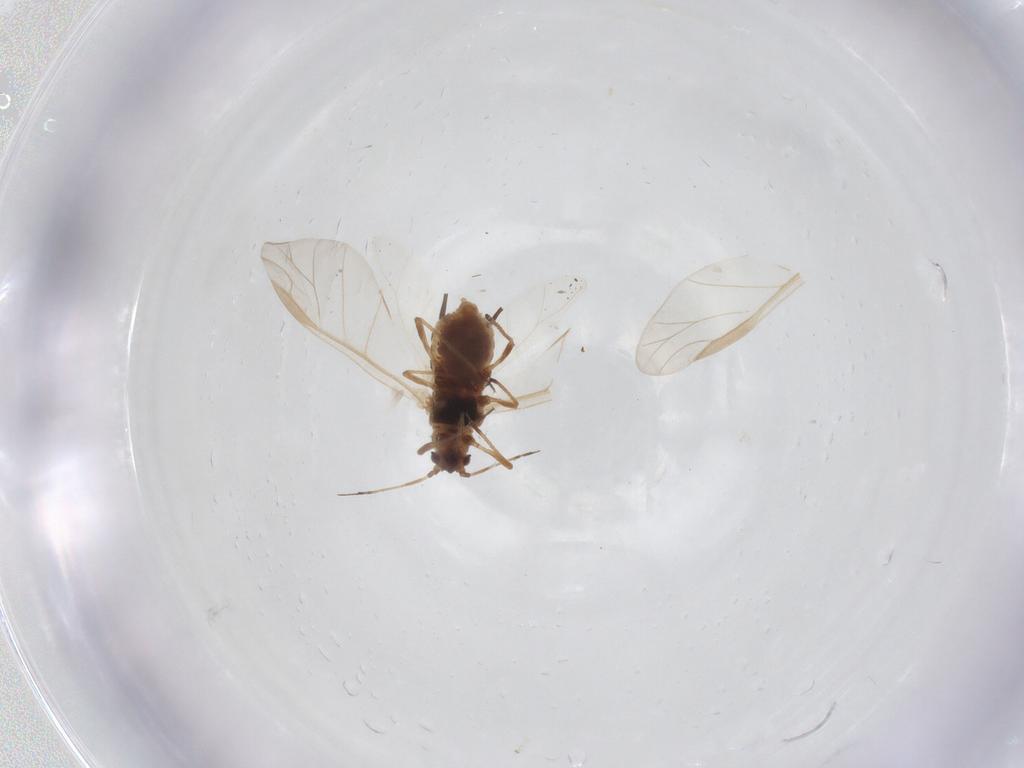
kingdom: Animalia
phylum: Arthropoda
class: Insecta
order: Hemiptera
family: Aphididae
